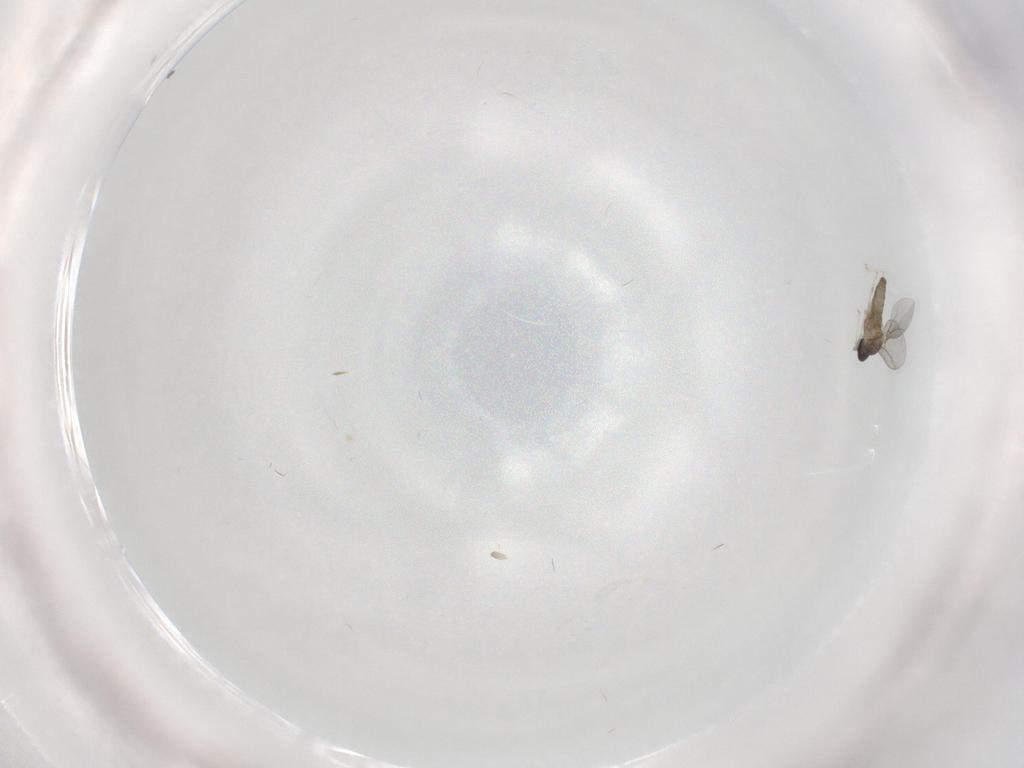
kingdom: Animalia
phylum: Arthropoda
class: Insecta
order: Diptera
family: Cecidomyiidae
